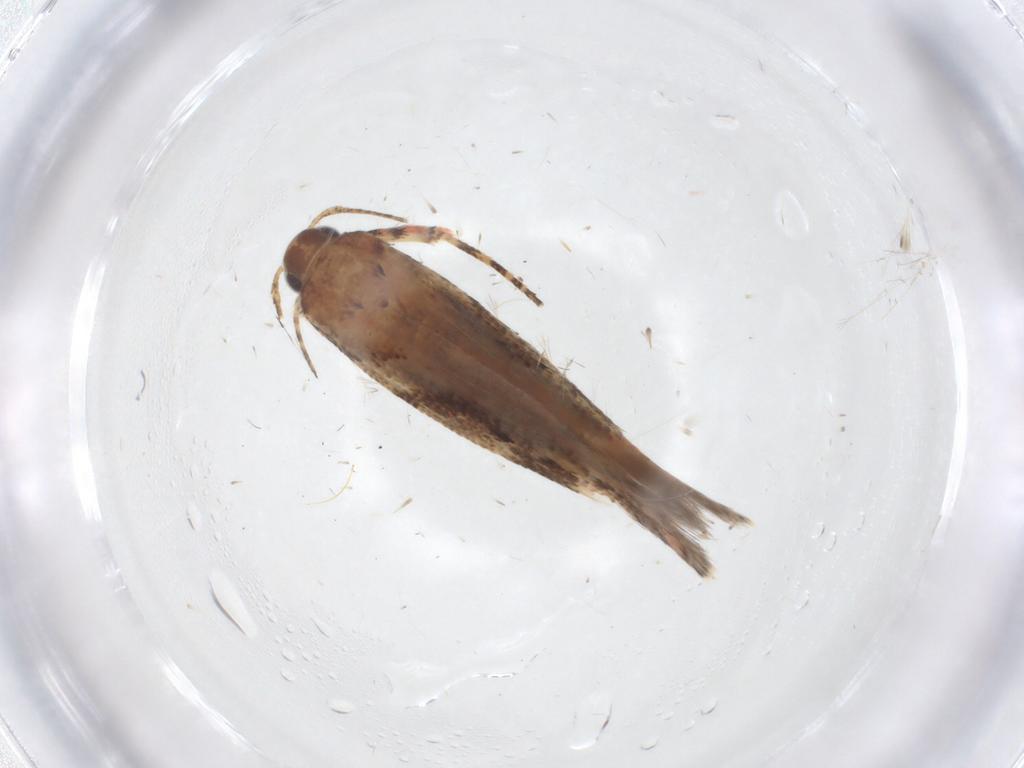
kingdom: Animalia
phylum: Arthropoda
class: Insecta
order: Lepidoptera
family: Gelechiidae
